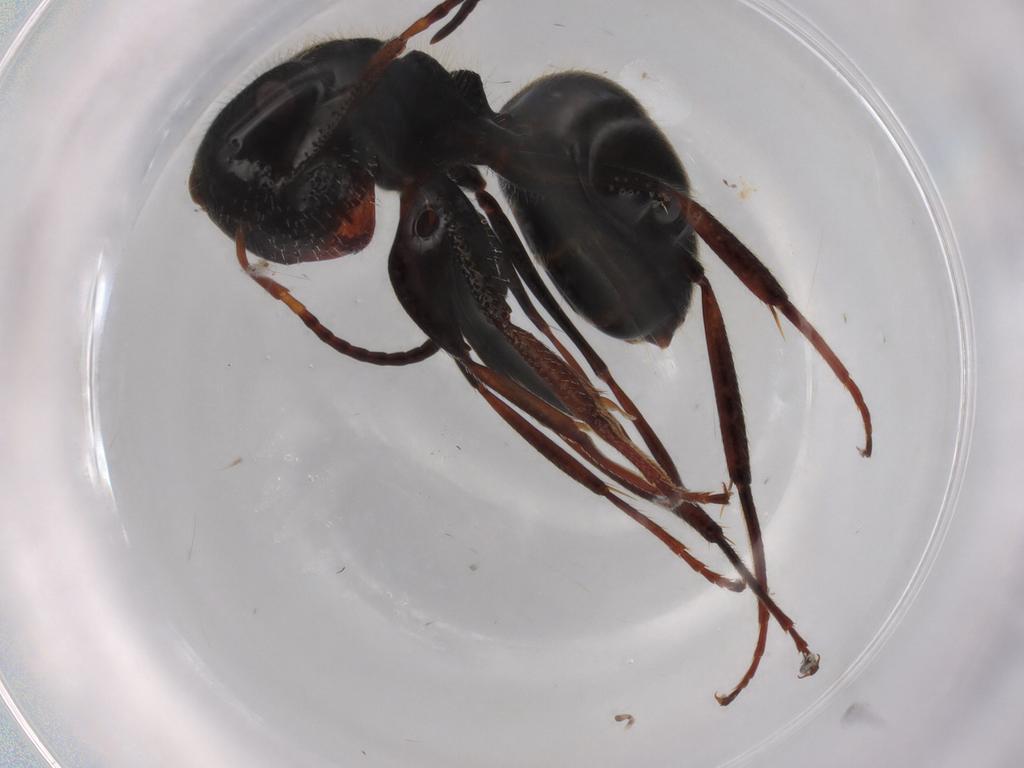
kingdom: Animalia
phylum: Arthropoda
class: Insecta
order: Hymenoptera
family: Formicidae
